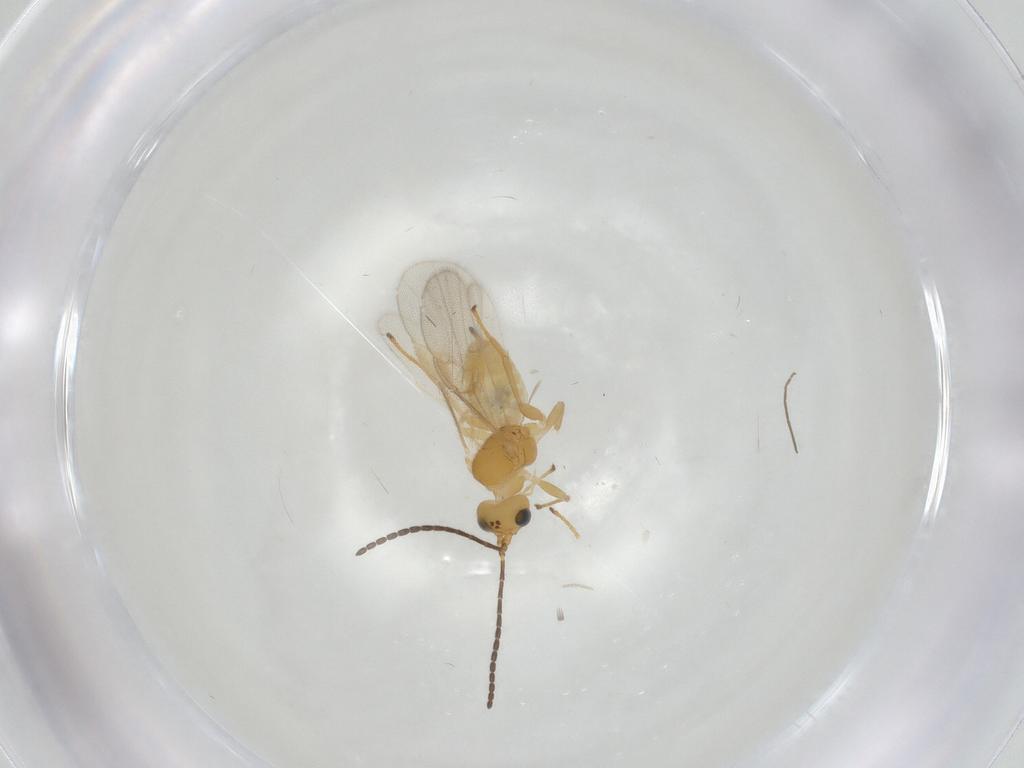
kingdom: Animalia
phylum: Arthropoda
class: Insecta
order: Hymenoptera
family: Braconidae
